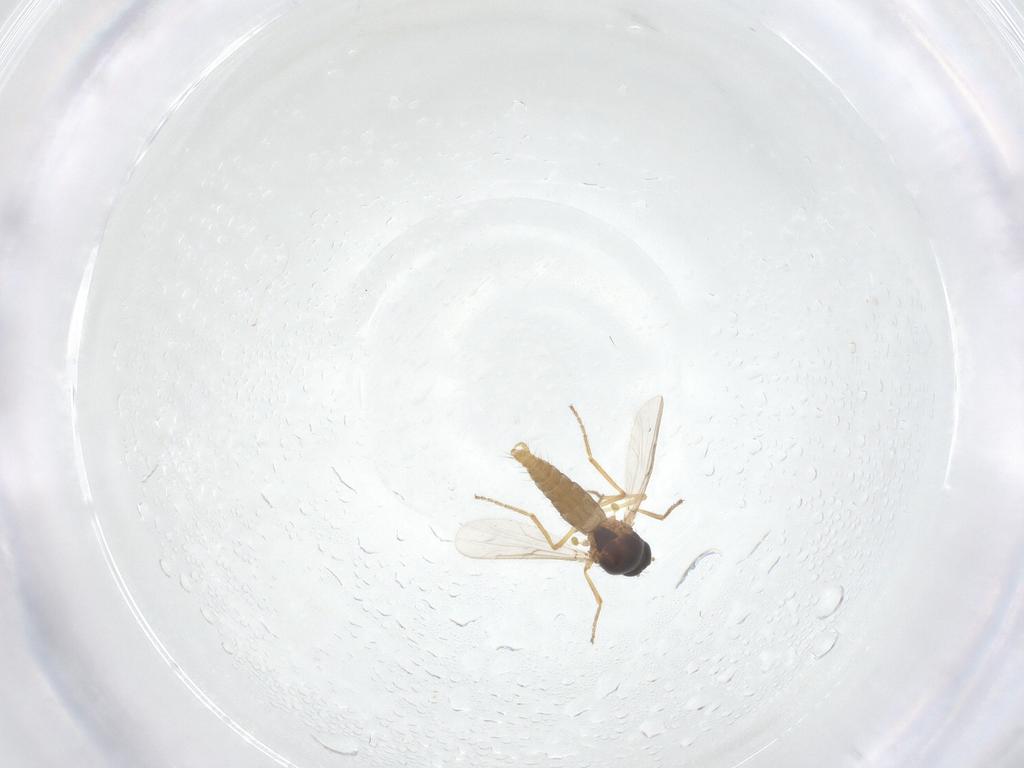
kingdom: Animalia
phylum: Arthropoda
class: Insecta
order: Diptera
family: Ceratopogonidae
